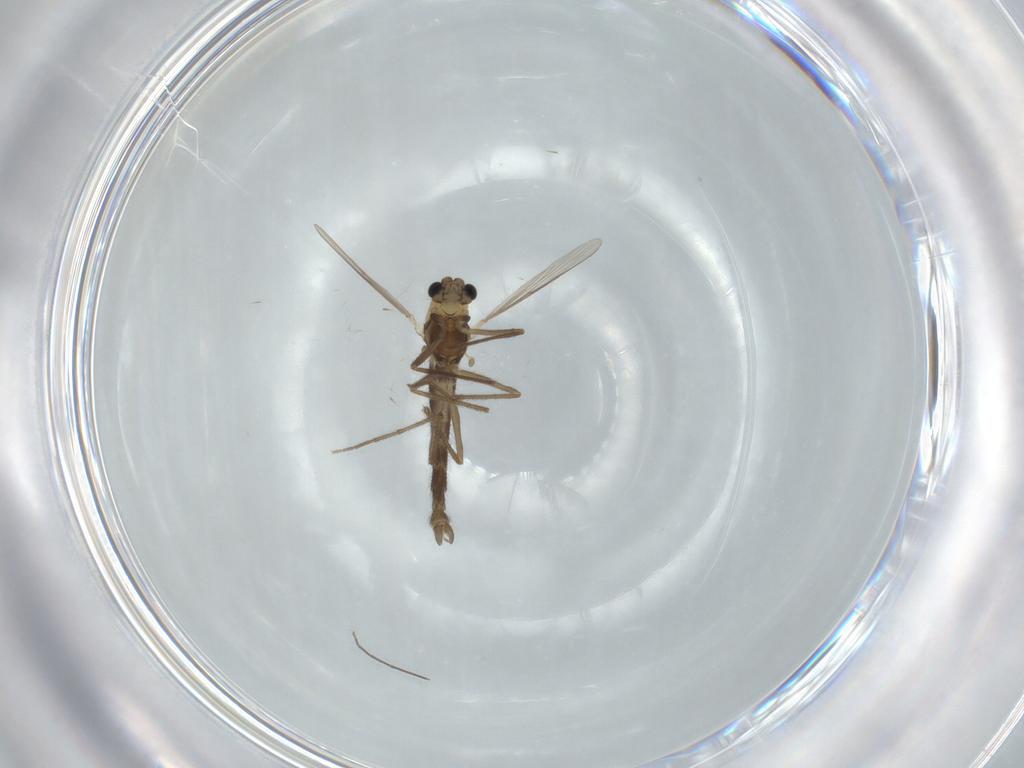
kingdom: Animalia
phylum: Arthropoda
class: Insecta
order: Diptera
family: Chironomidae
